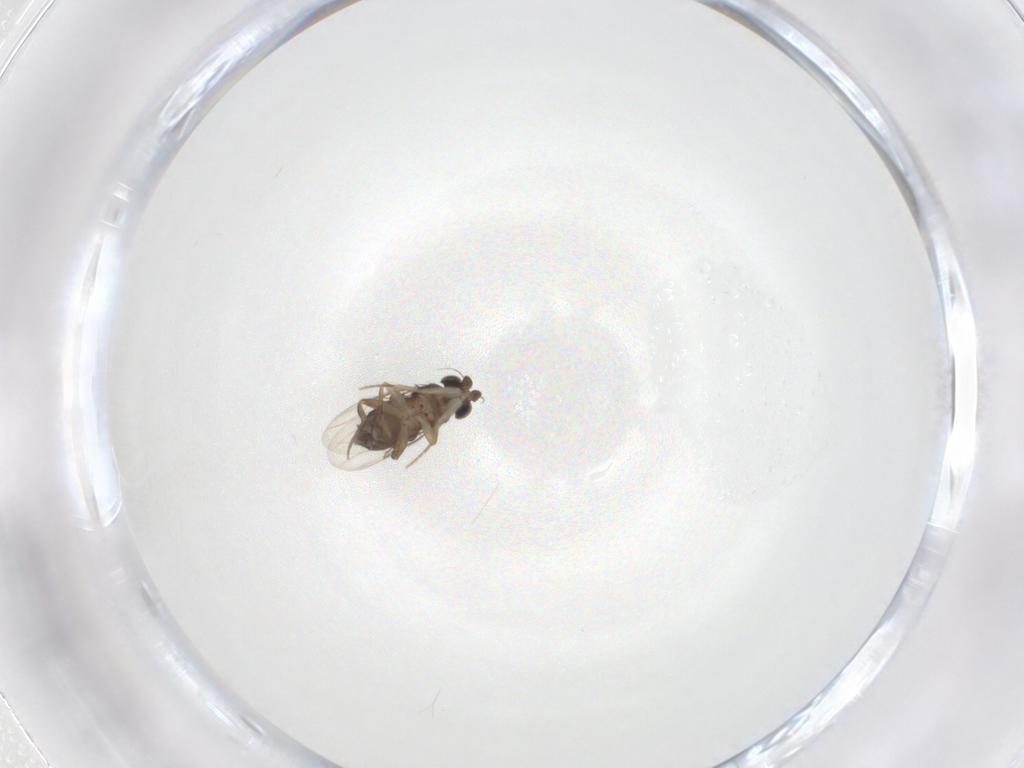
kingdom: Animalia
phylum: Arthropoda
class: Insecta
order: Diptera
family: Phoridae
